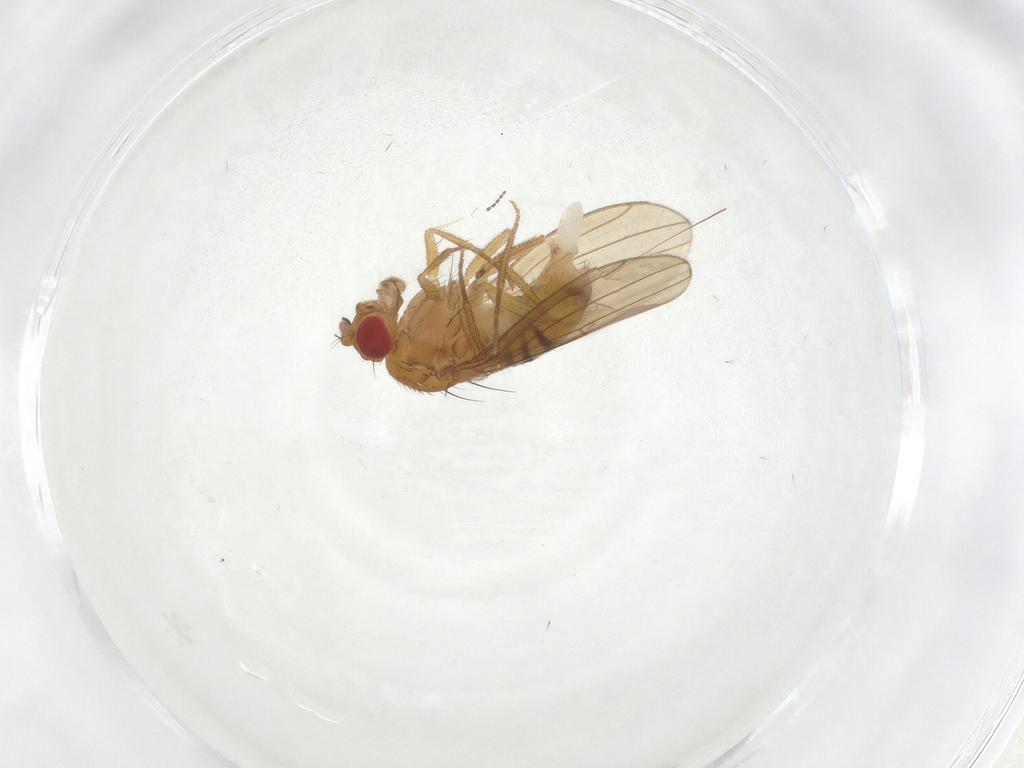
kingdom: Animalia
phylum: Arthropoda
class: Insecta
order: Diptera
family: Drosophilidae
